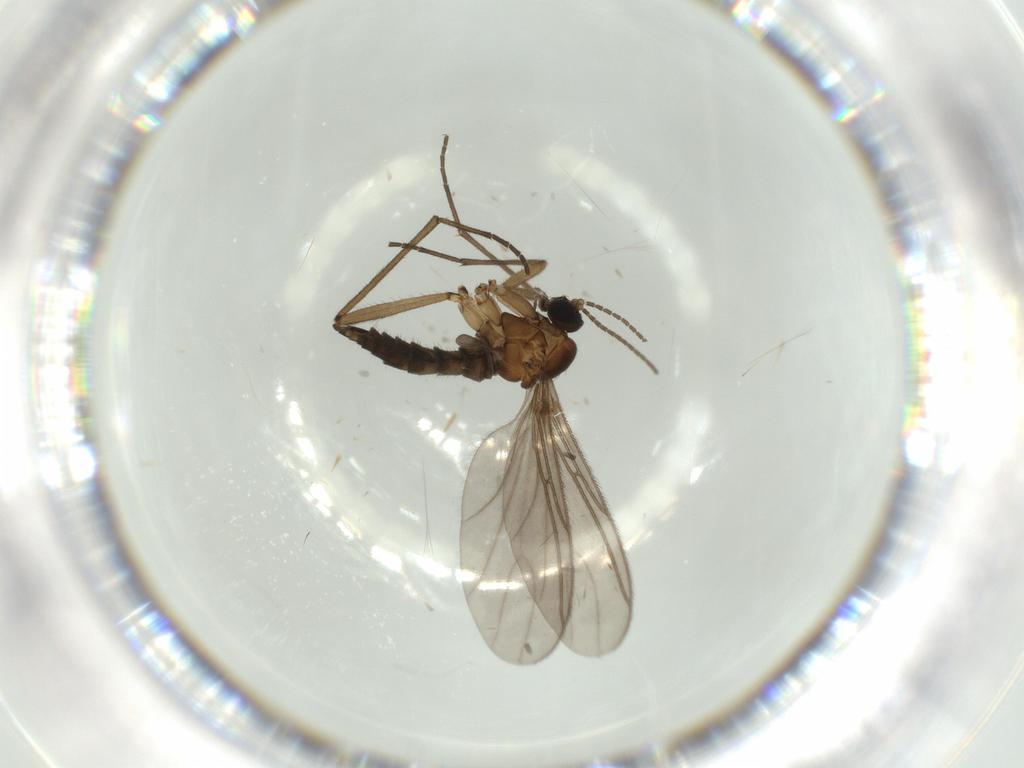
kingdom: Animalia
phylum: Arthropoda
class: Insecta
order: Diptera
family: Sciaridae
